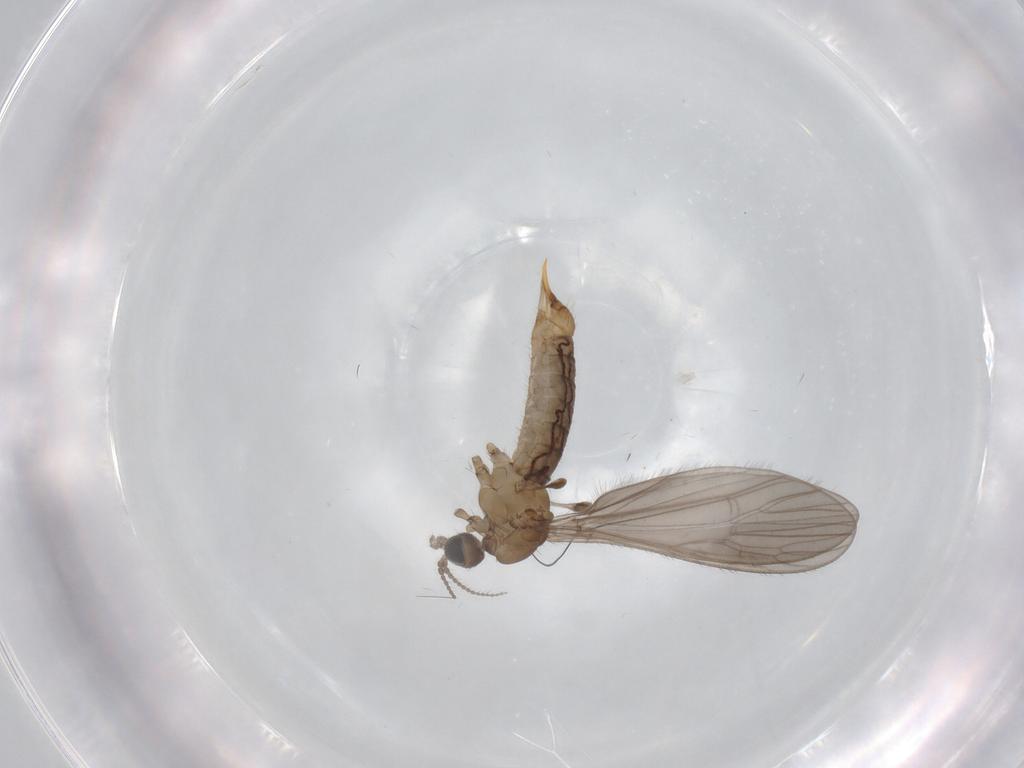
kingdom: Animalia
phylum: Arthropoda
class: Insecta
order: Diptera
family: Limoniidae
